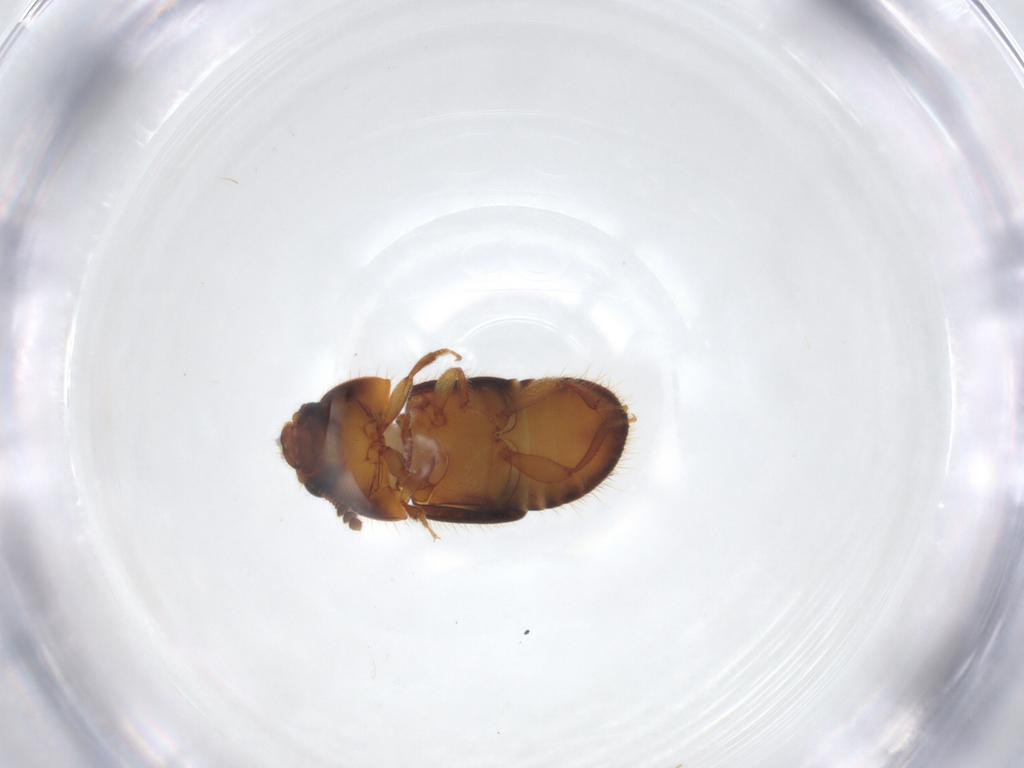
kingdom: Animalia
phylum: Arthropoda
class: Insecta
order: Coleoptera
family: Nitidulidae
